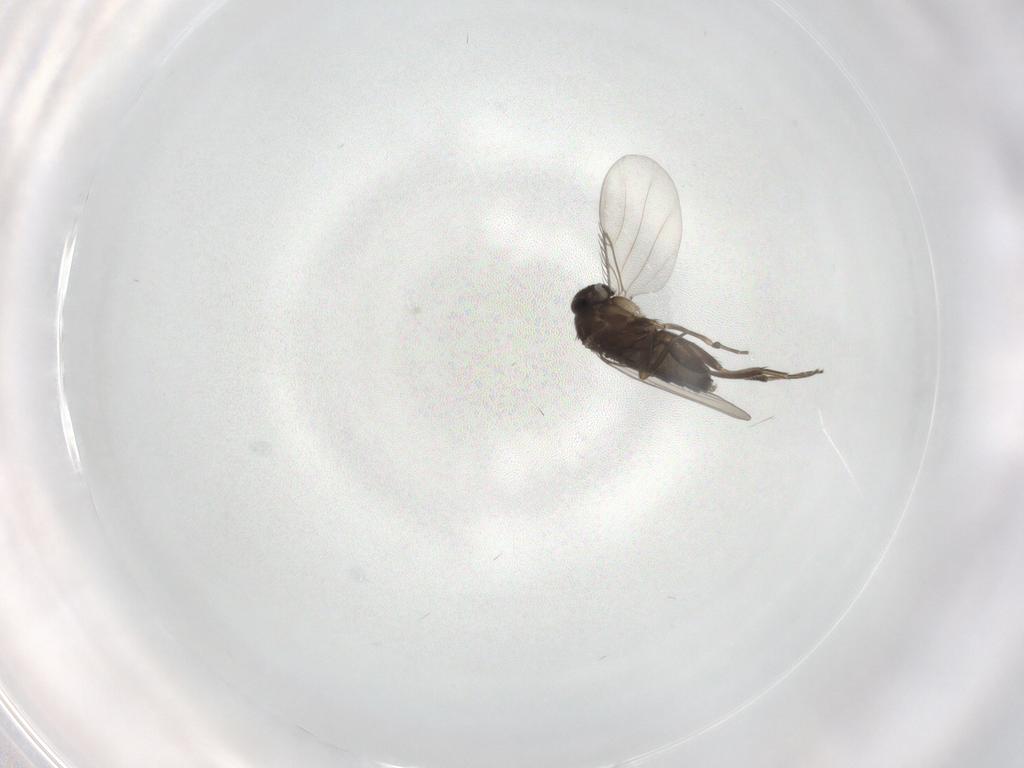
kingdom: Animalia
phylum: Arthropoda
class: Insecta
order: Diptera
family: Phoridae
